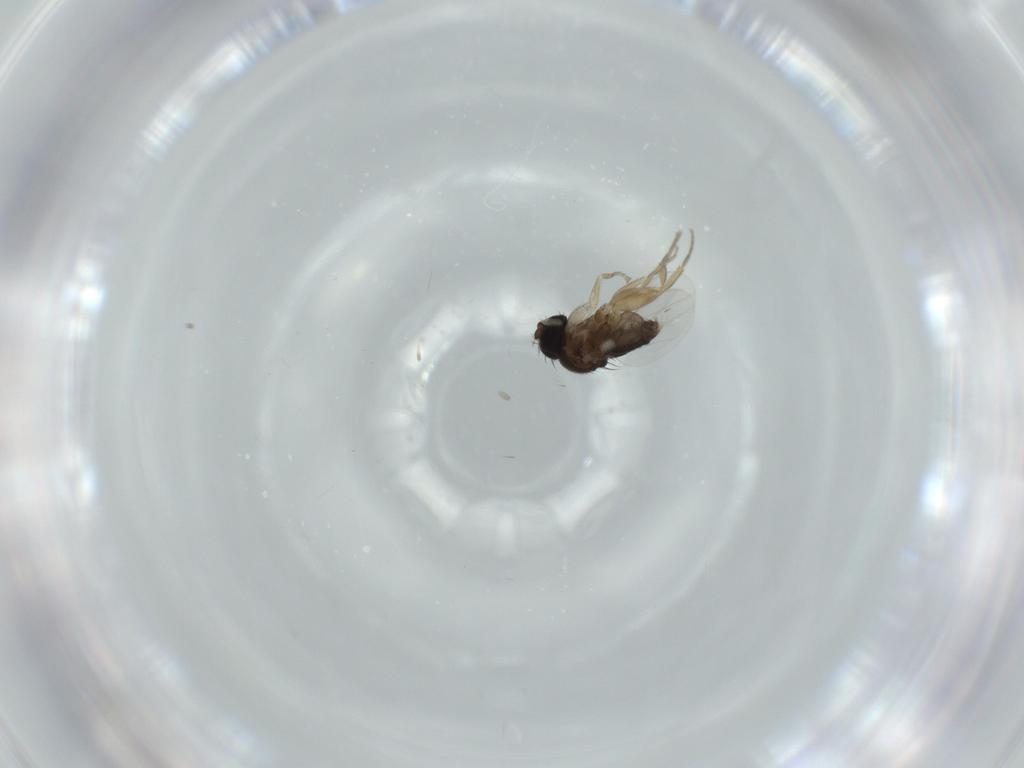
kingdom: Animalia
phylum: Arthropoda
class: Insecta
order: Diptera
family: Phoridae
